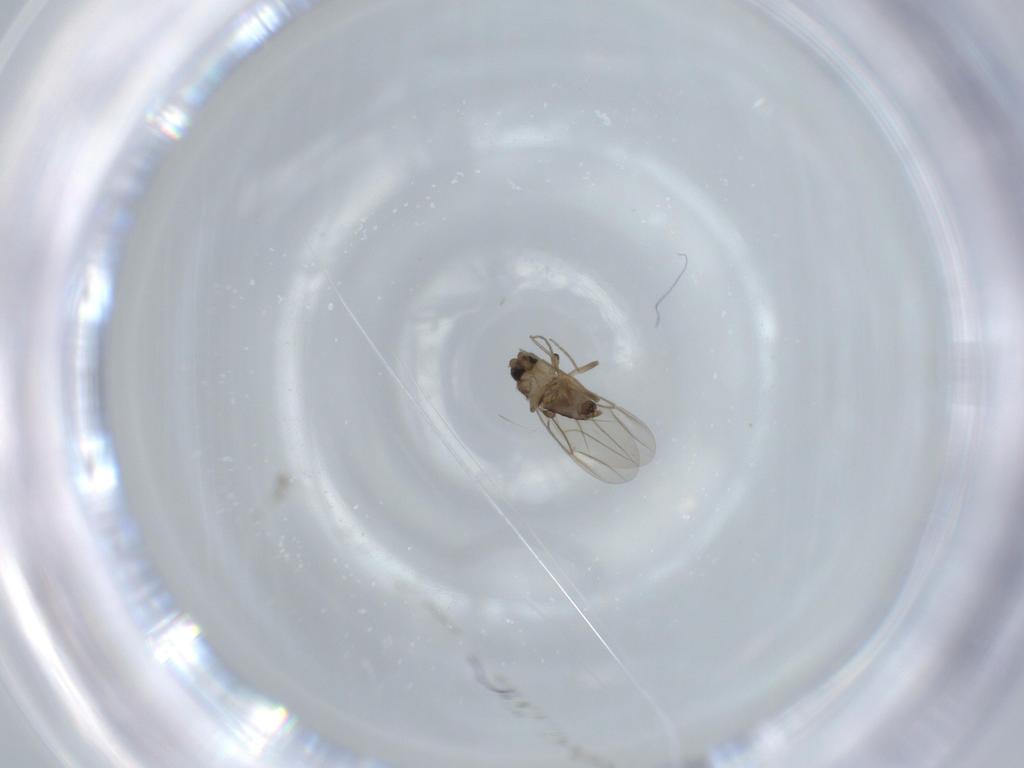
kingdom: Animalia
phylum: Arthropoda
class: Insecta
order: Diptera
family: Phoridae
